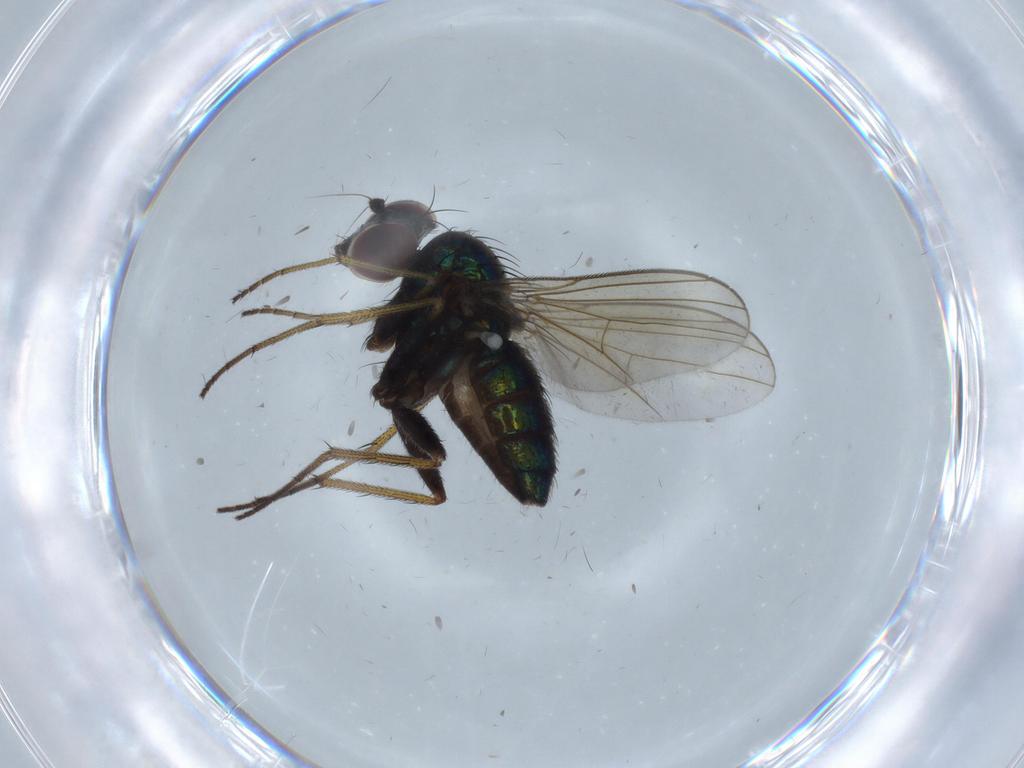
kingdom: Animalia
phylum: Arthropoda
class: Insecta
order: Diptera
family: Dolichopodidae
